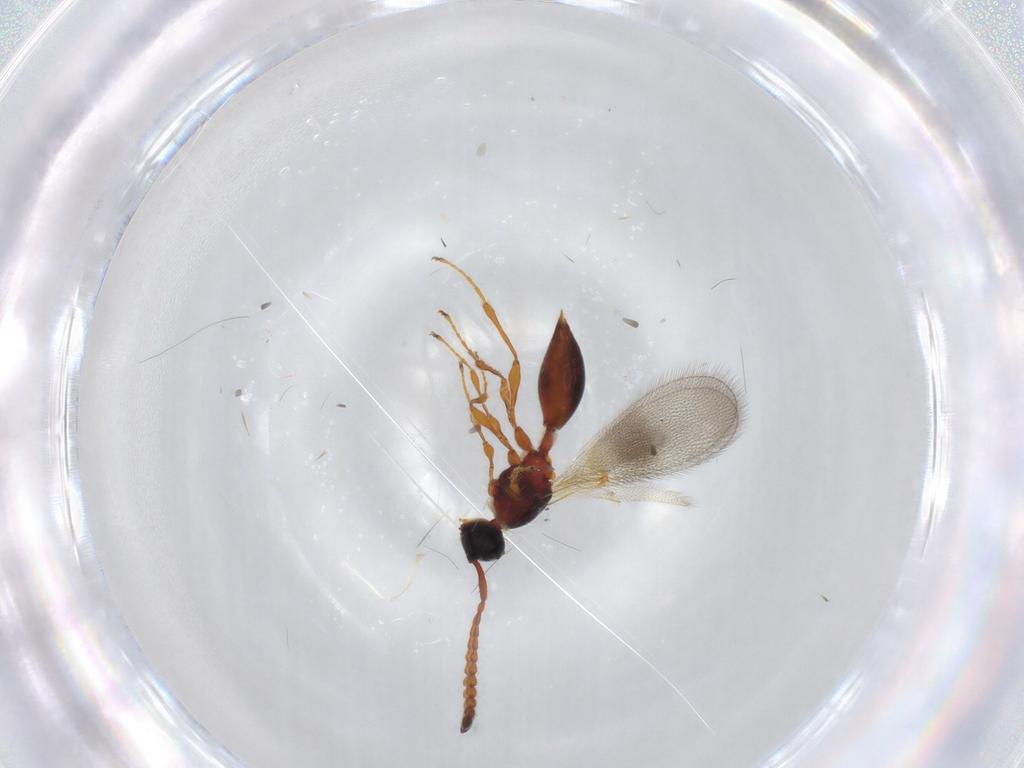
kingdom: Animalia
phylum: Arthropoda
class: Insecta
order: Hymenoptera
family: Diapriidae
